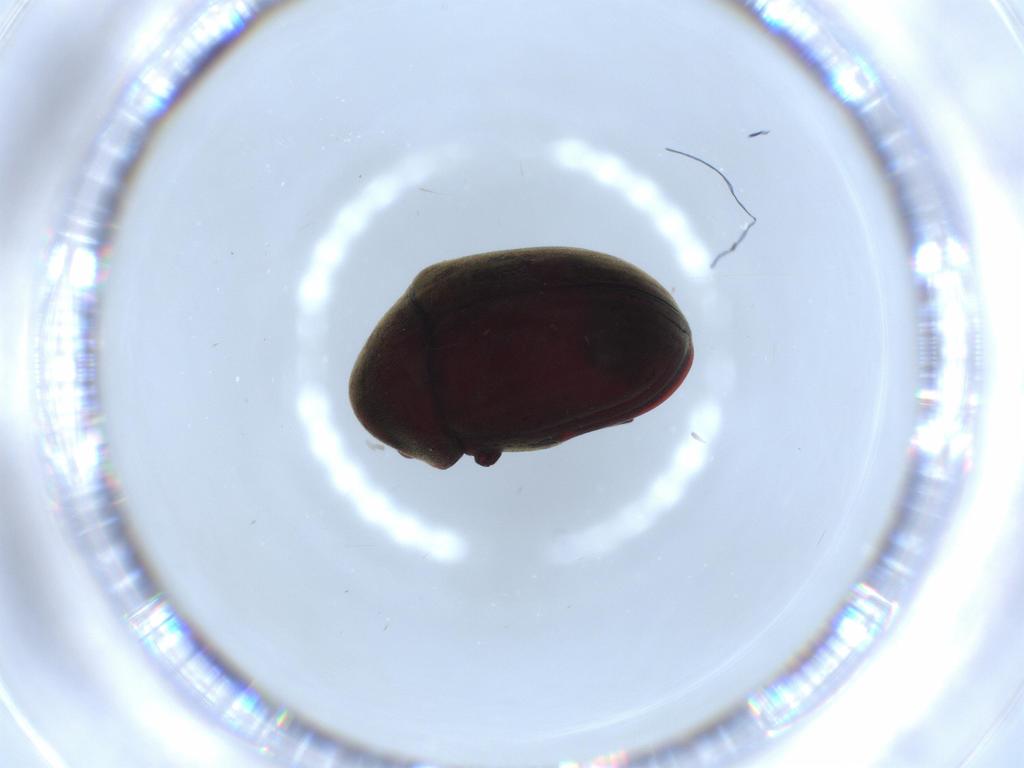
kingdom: Animalia
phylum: Arthropoda
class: Insecta
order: Coleoptera
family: Ptinidae
